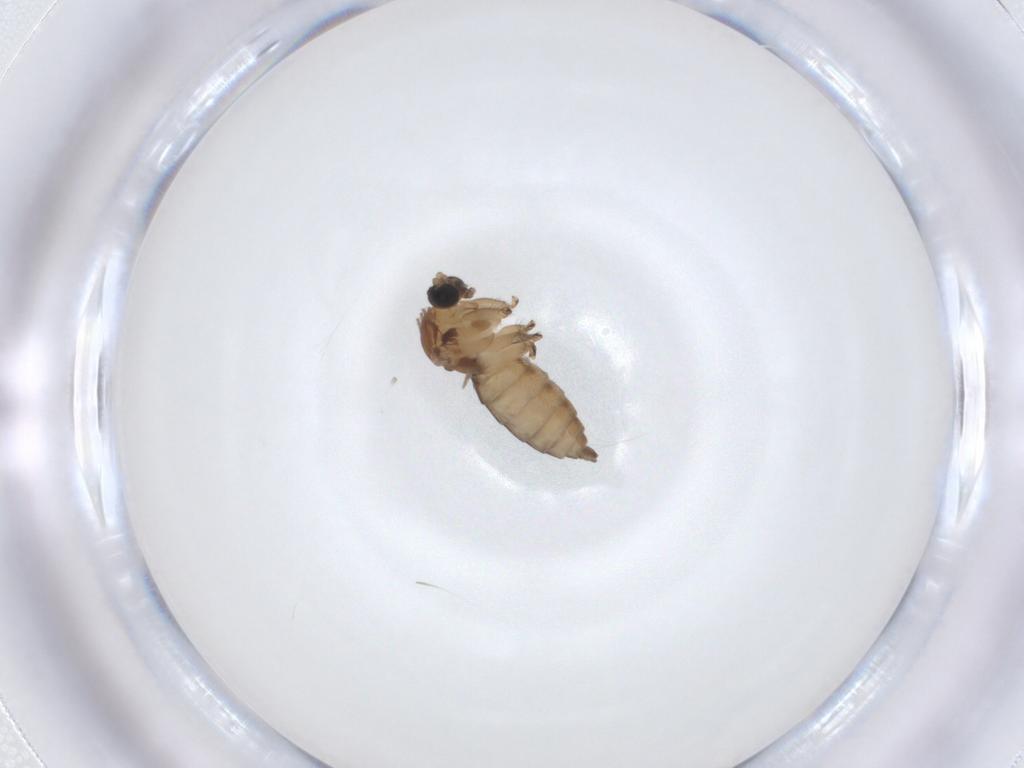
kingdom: Animalia
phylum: Arthropoda
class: Insecta
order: Diptera
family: Sciaridae
